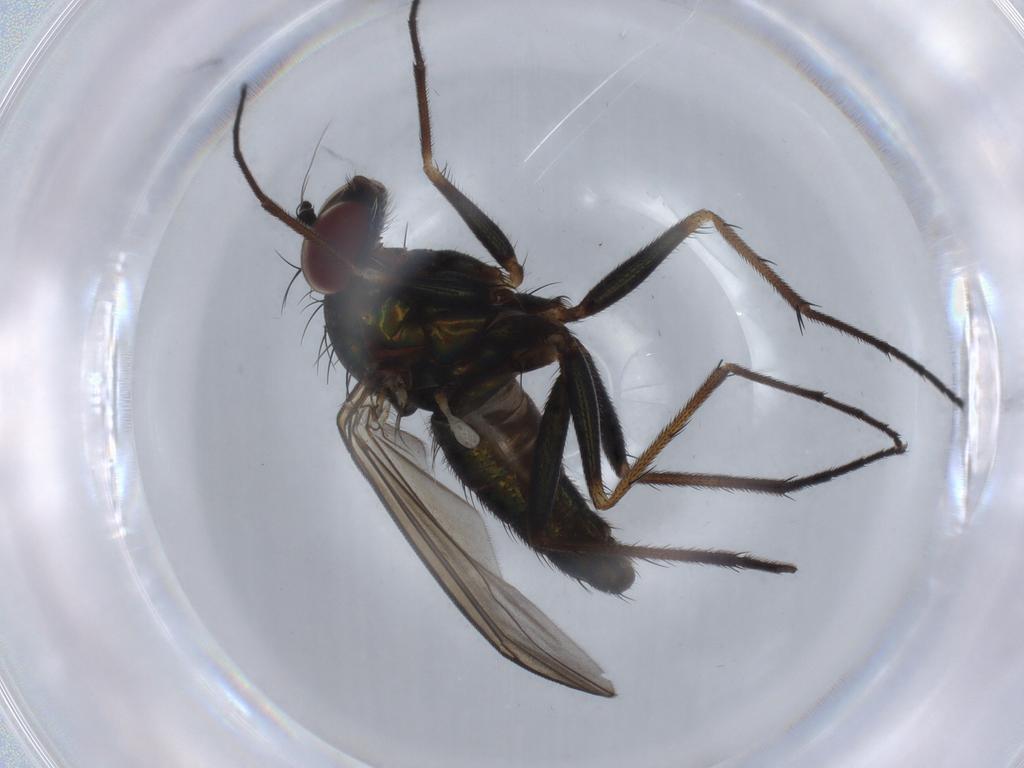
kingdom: Animalia
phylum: Arthropoda
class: Insecta
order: Diptera
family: Dolichopodidae
